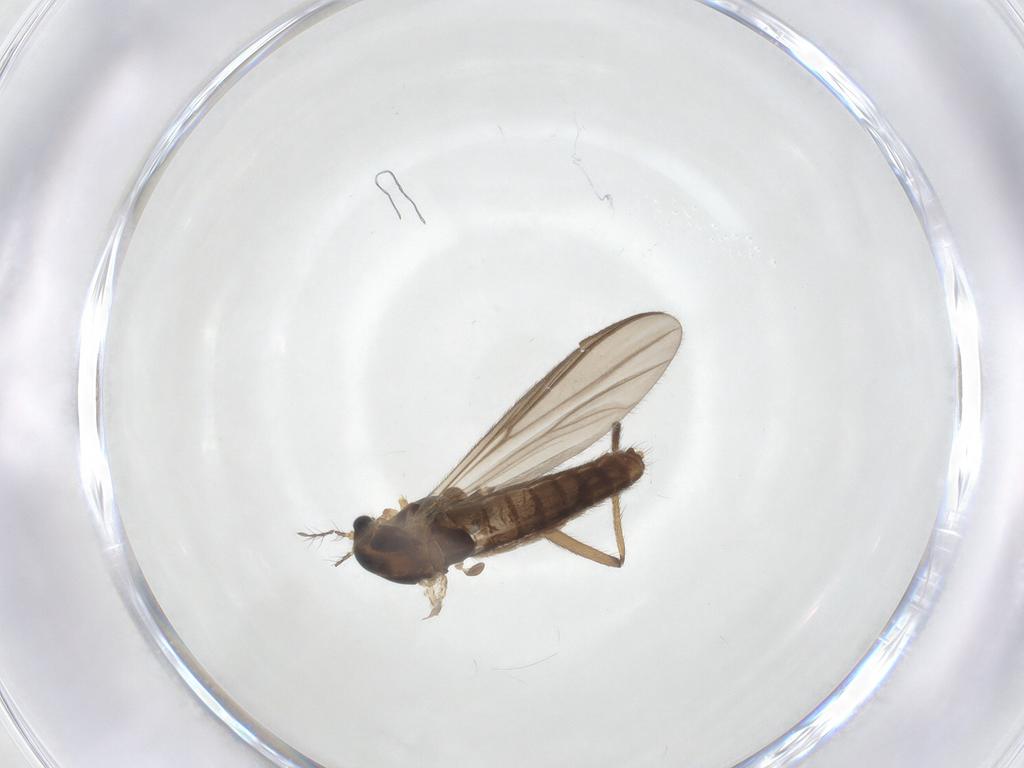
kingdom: Animalia
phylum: Arthropoda
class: Insecta
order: Diptera
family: Chironomidae
